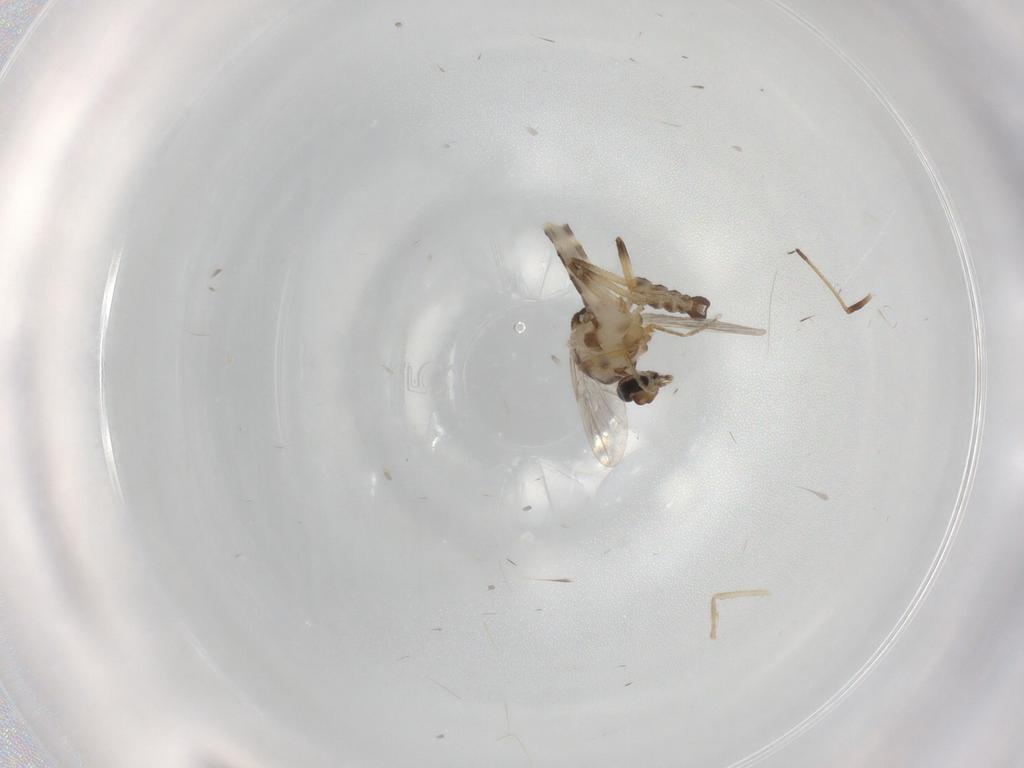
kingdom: Animalia
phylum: Arthropoda
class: Insecta
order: Diptera
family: Ceratopogonidae
